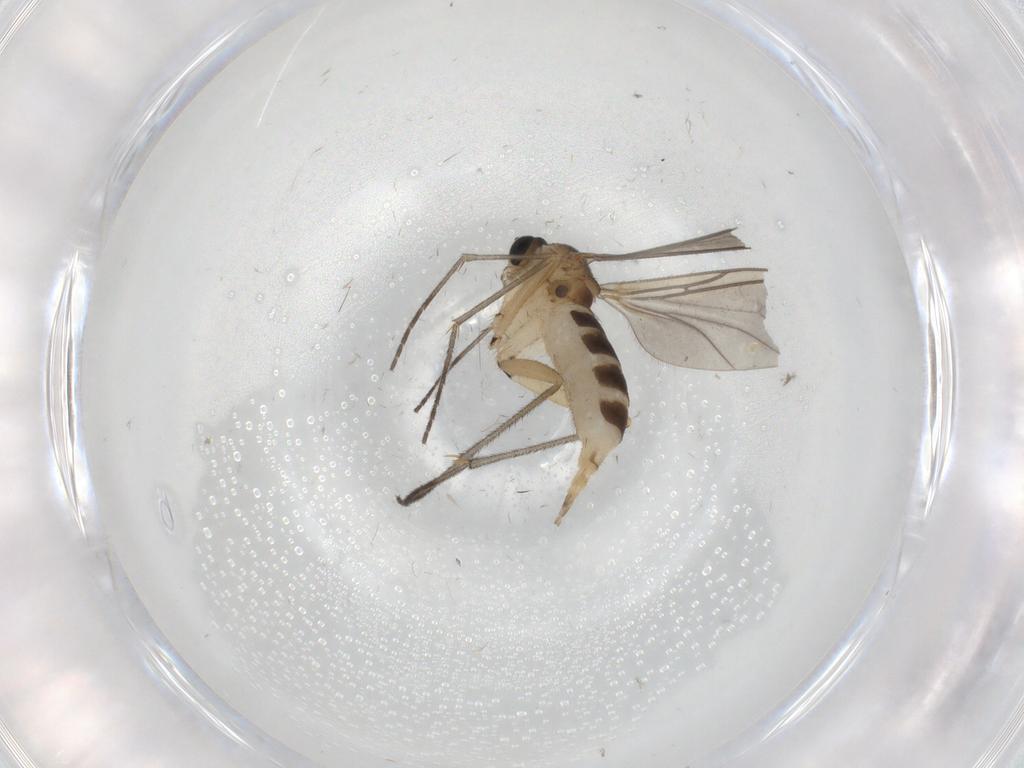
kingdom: Animalia
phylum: Arthropoda
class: Insecta
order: Diptera
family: Sciaridae
